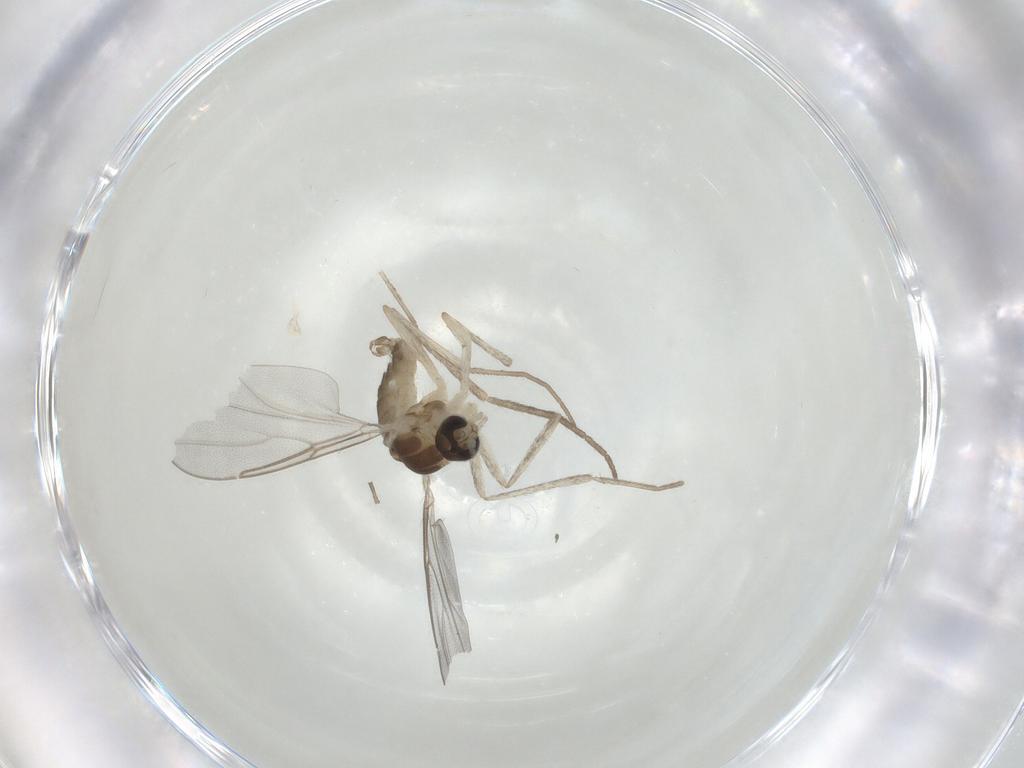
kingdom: Animalia
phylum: Arthropoda
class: Insecta
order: Diptera
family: Cecidomyiidae
